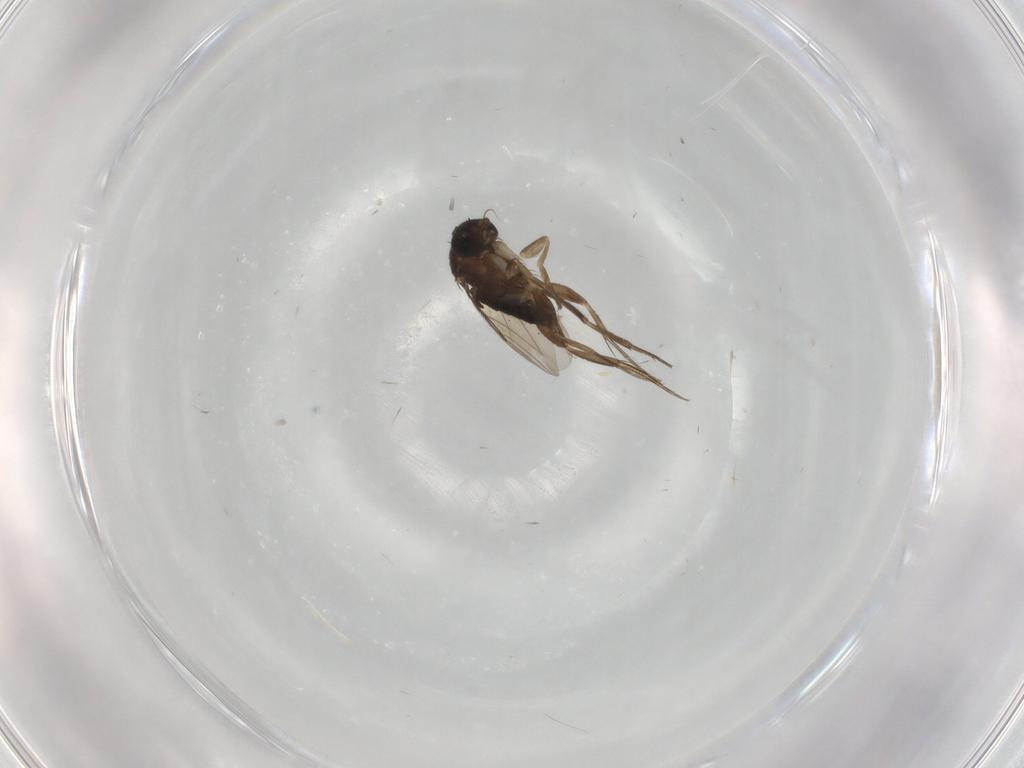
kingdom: Animalia
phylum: Arthropoda
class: Insecta
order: Diptera
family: Phoridae
